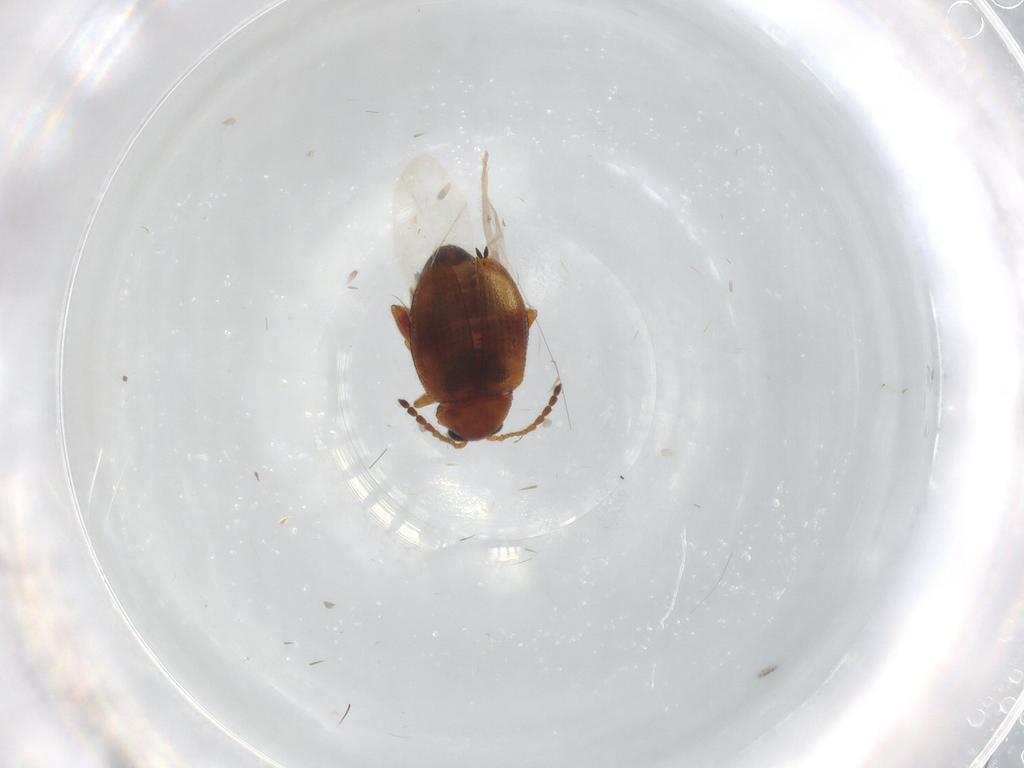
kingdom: Animalia
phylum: Arthropoda
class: Insecta
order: Coleoptera
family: Chrysomelidae
